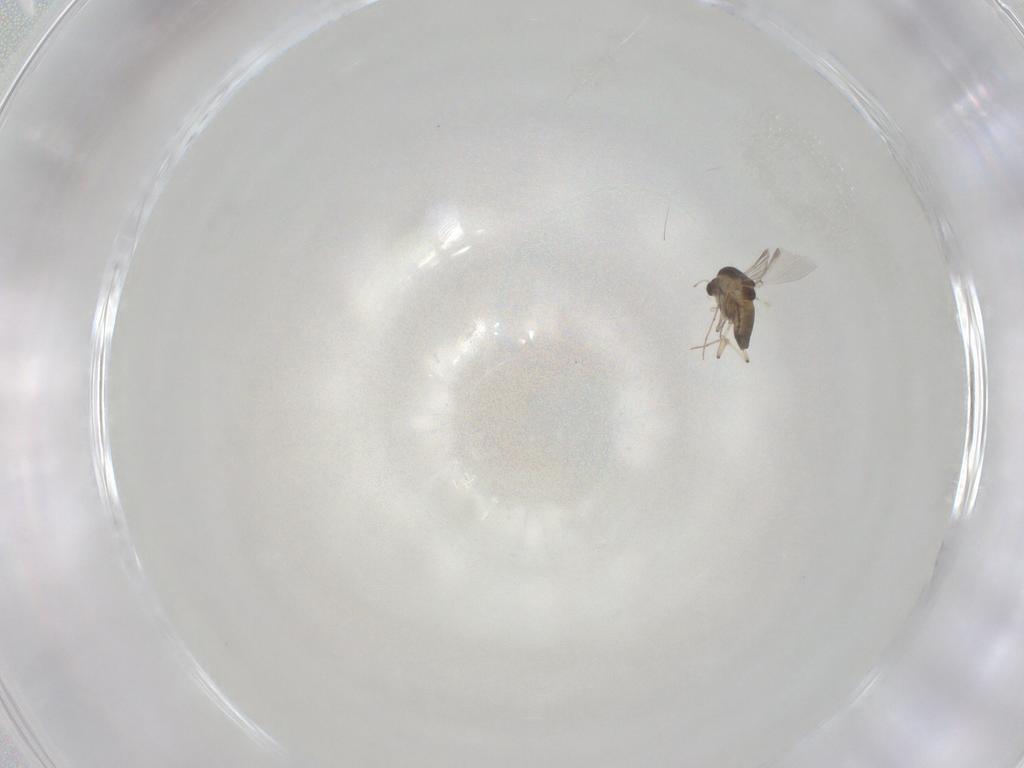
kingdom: Animalia
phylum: Arthropoda
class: Insecta
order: Diptera
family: Chironomidae
